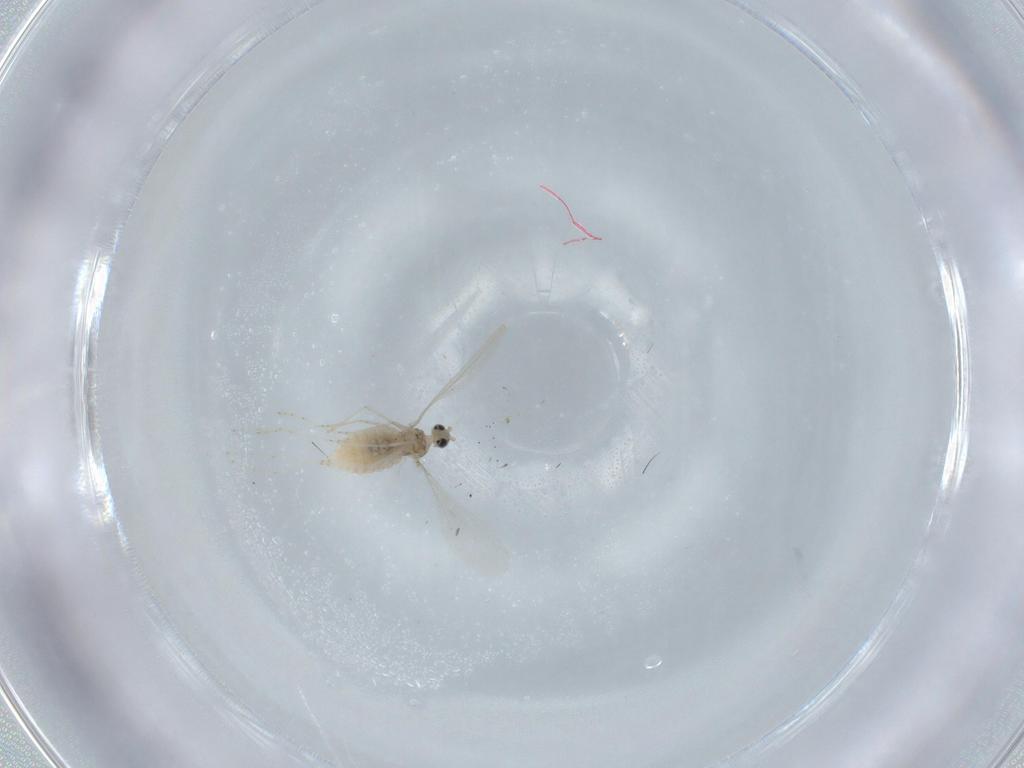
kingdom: Animalia
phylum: Arthropoda
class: Insecta
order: Diptera
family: Cecidomyiidae
